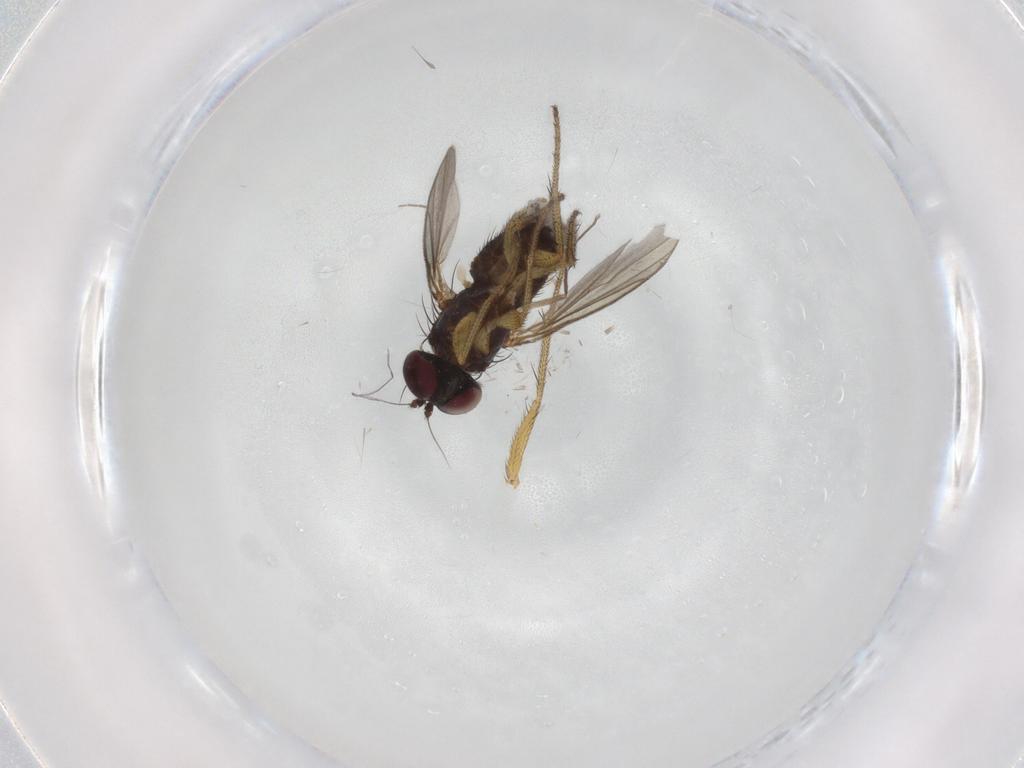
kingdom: Animalia
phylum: Arthropoda
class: Insecta
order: Diptera
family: Dolichopodidae
